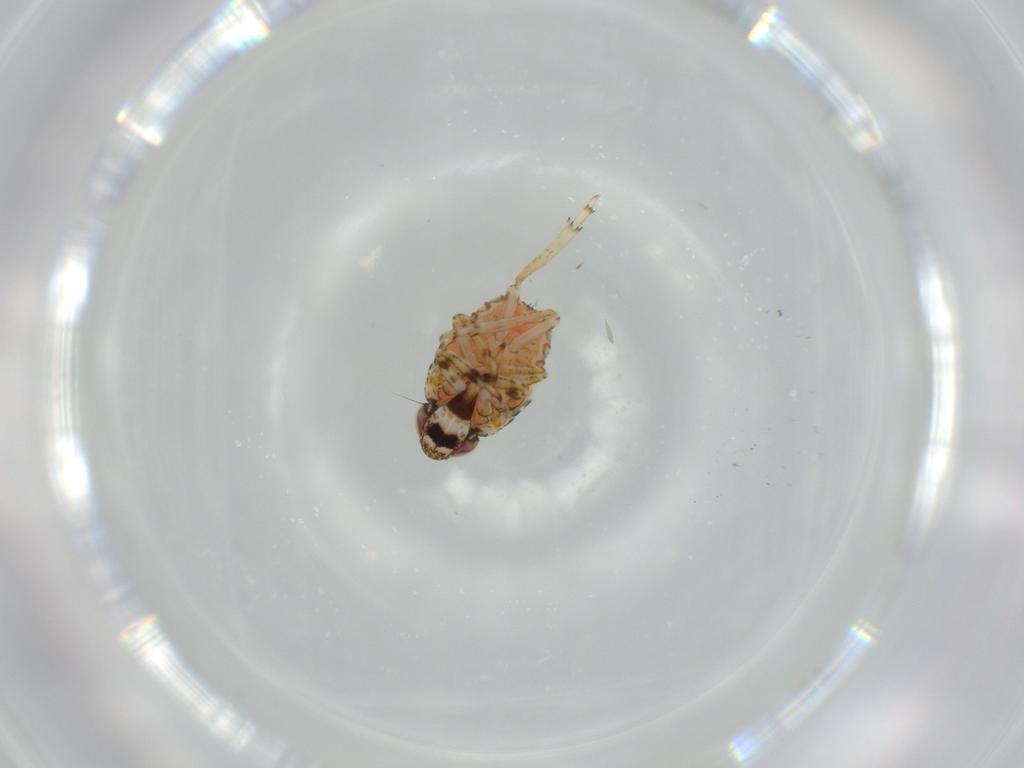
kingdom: Animalia
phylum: Arthropoda
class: Insecta
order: Hemiptera
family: Issidae
